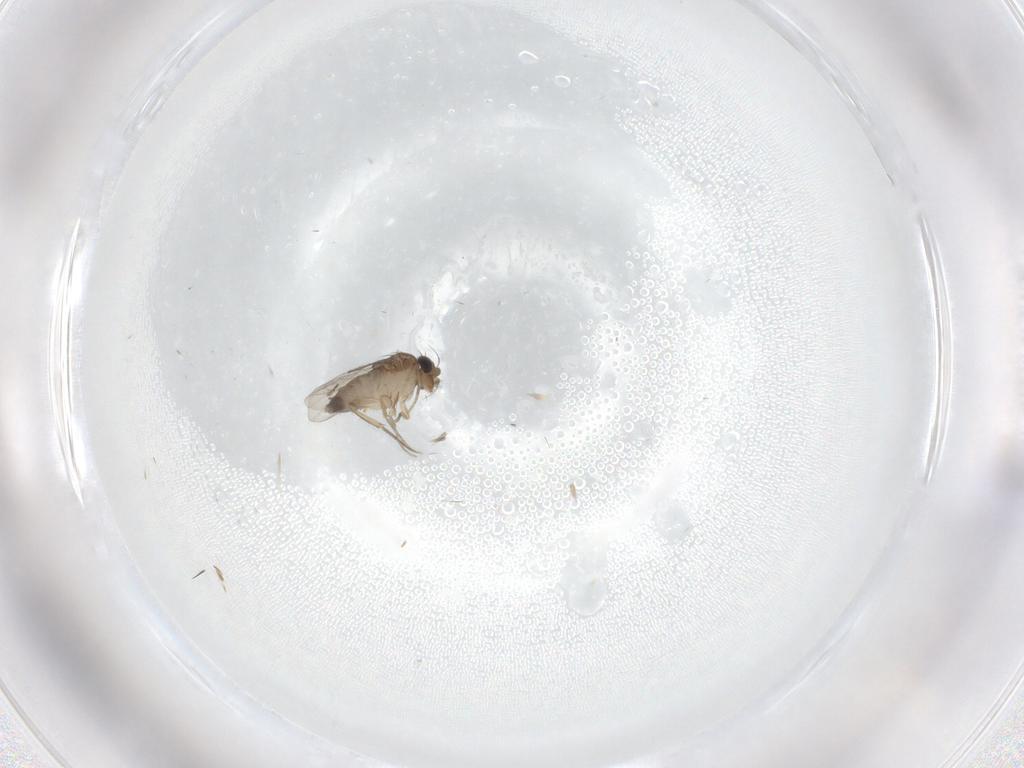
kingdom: Animalia
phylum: Arthropoda
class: Insecta
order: Diptera
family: Clusiidae
